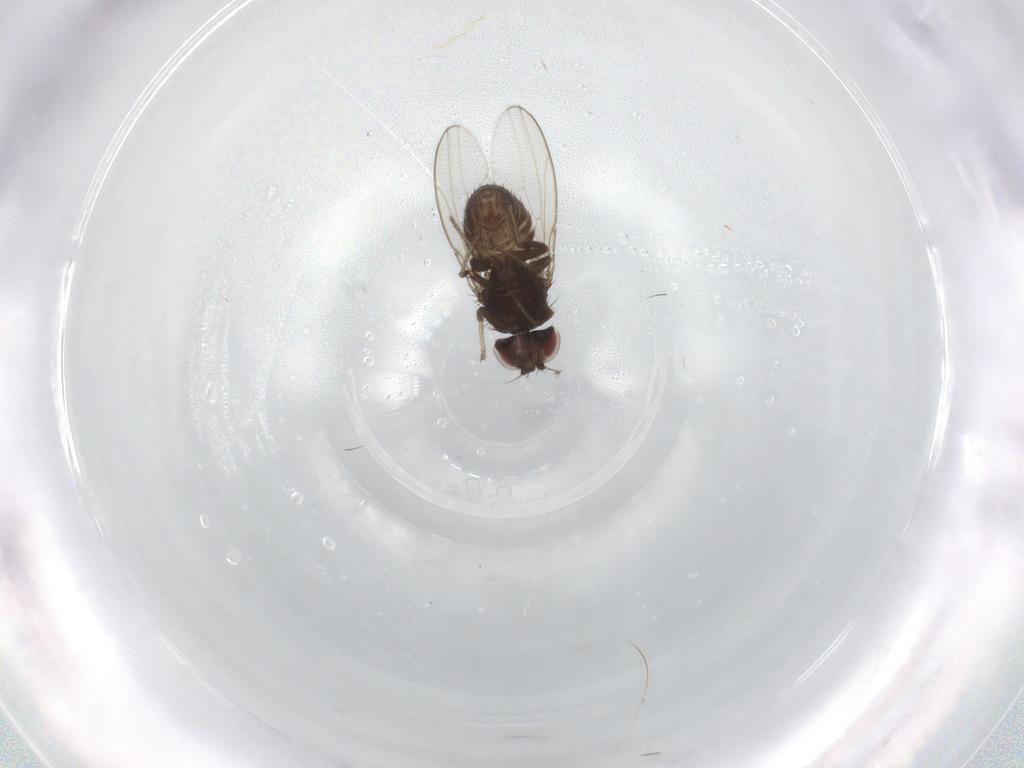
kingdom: Animalia
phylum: Arthropoda
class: Insecta
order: Diptera
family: Drosophilidae
